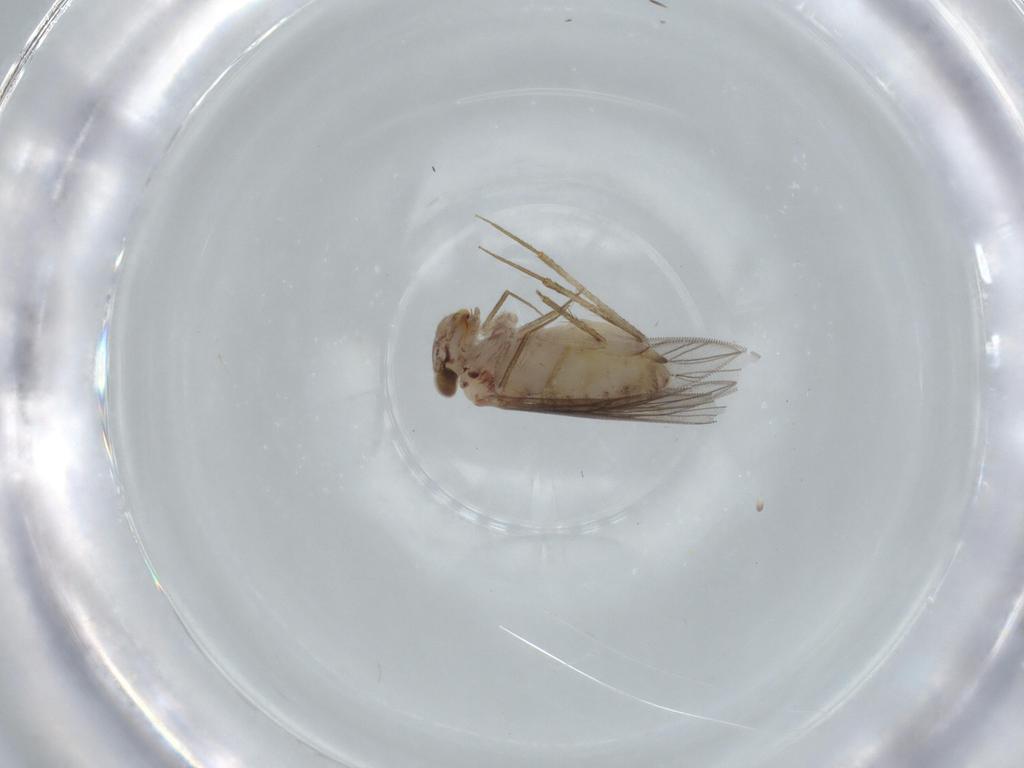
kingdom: Animalia
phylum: Arthropoda
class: Insecta
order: Psocodea
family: Lepidopsocidae
